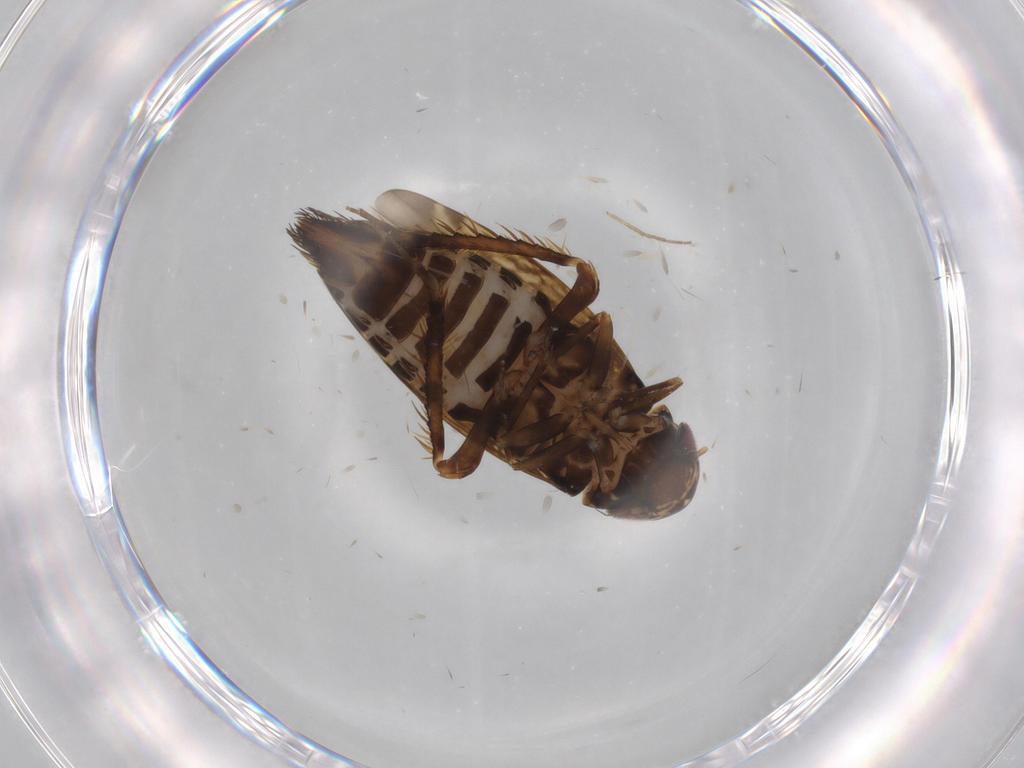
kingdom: Animalia
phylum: Arthropoda
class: Insecta
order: Hemiptera
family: Cicadellidae
